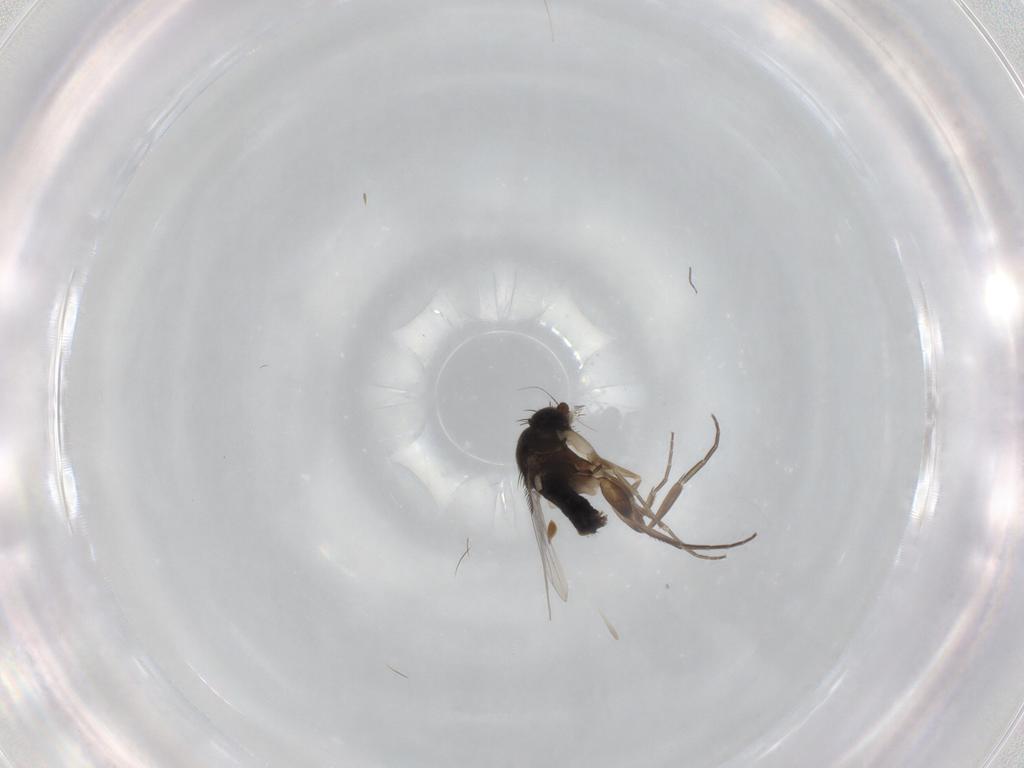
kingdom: Animalia
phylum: Arthropoda
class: Insecta
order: Diptera
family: Phoridae
